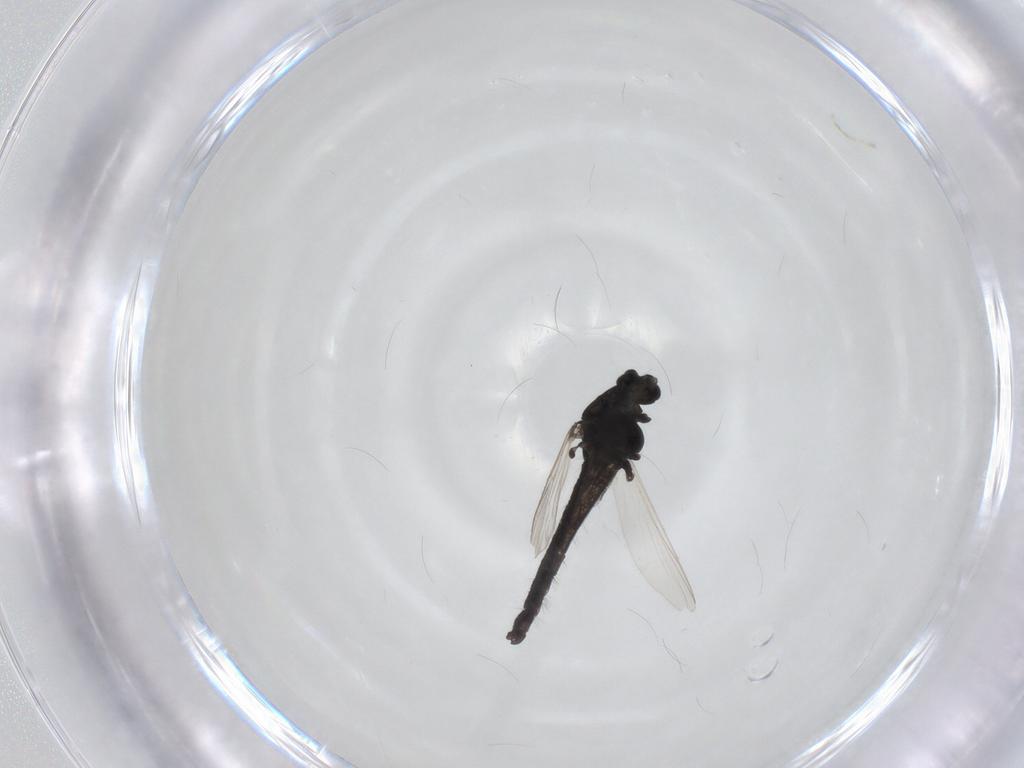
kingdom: Animalia
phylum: Arthropoda
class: Insecta
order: Diptera
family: Chironomidae
